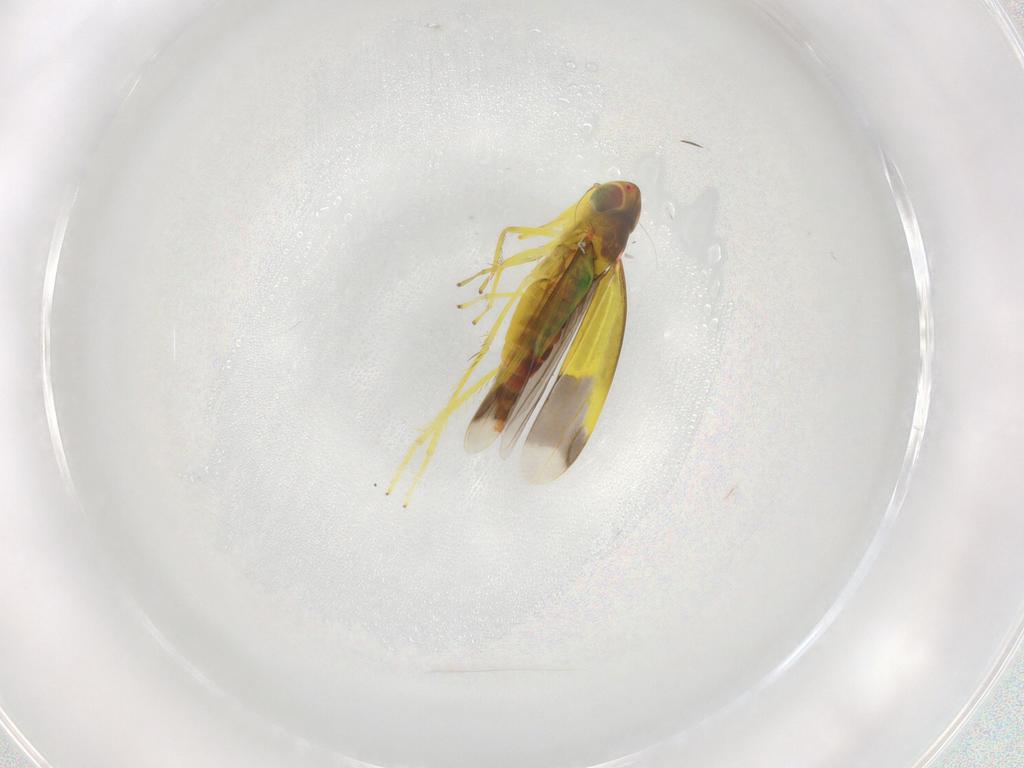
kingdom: Animalia
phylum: Arthropoda
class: Insecta
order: Hemiptera
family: Cicadellidae
